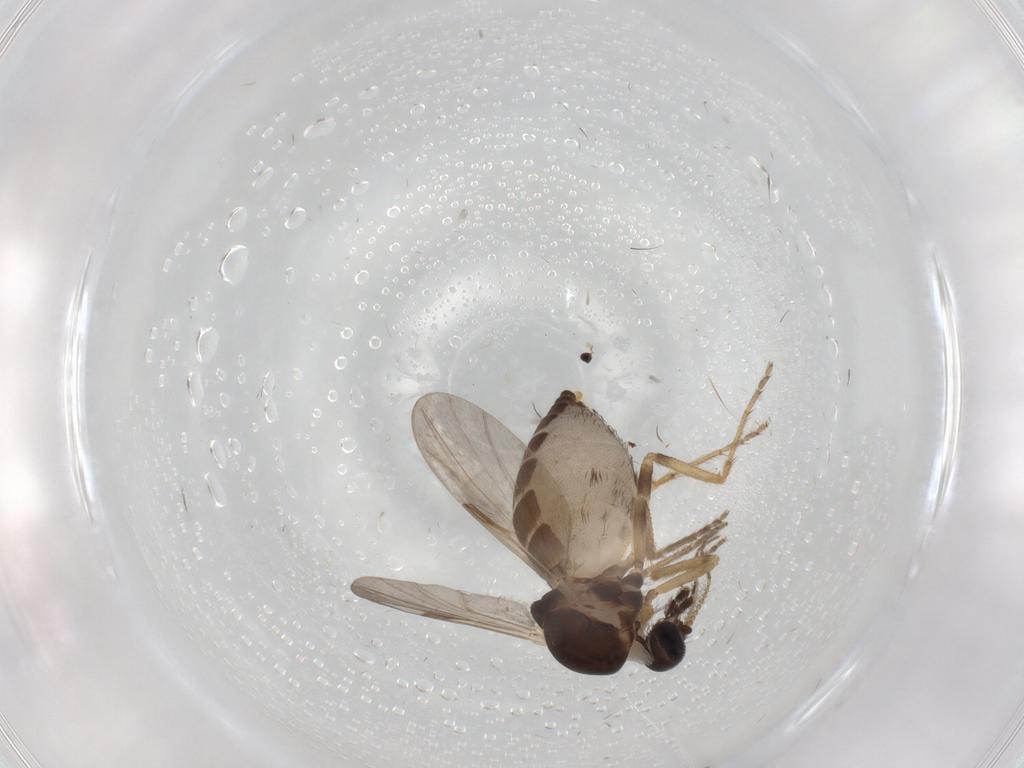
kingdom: Animalia
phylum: Arthropoda
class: Insecta
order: Diptera
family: Ceratopogonidae
